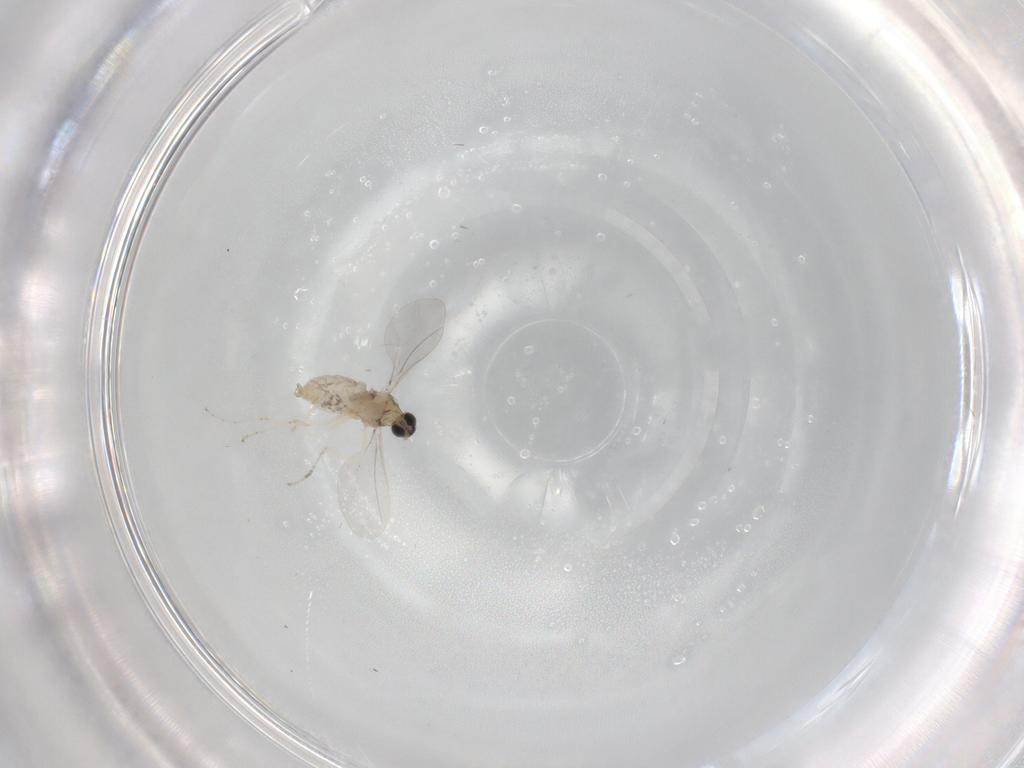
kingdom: Animalia
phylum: Arthropoda
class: Insecta
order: Diptera
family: Cecidomyiidae
